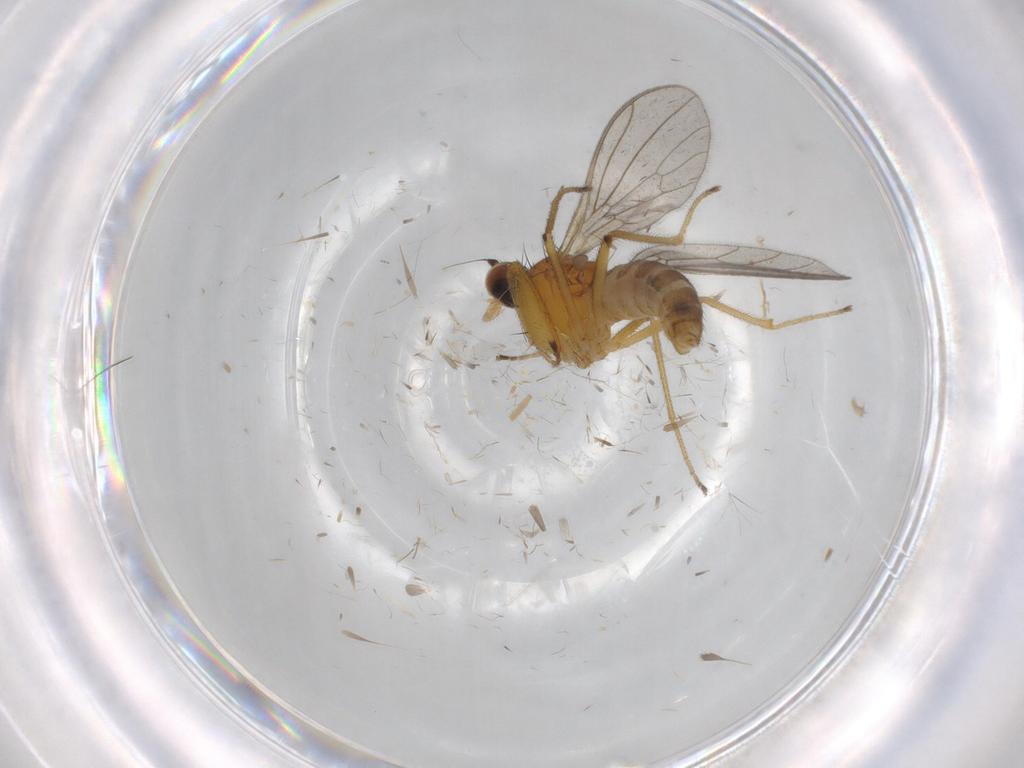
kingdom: Animalia
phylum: Arthropoda
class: Insecta
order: Diptera
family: Empididae
